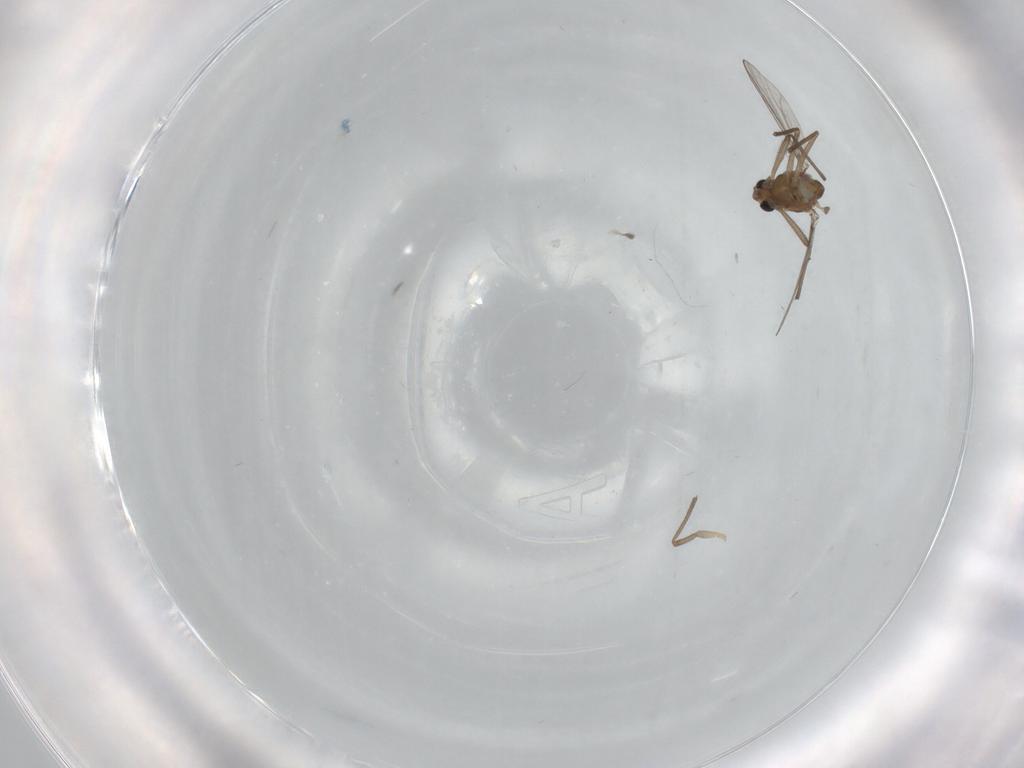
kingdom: Animalia
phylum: Arthropoda
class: Insecta
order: Diptera
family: Chironomidae
